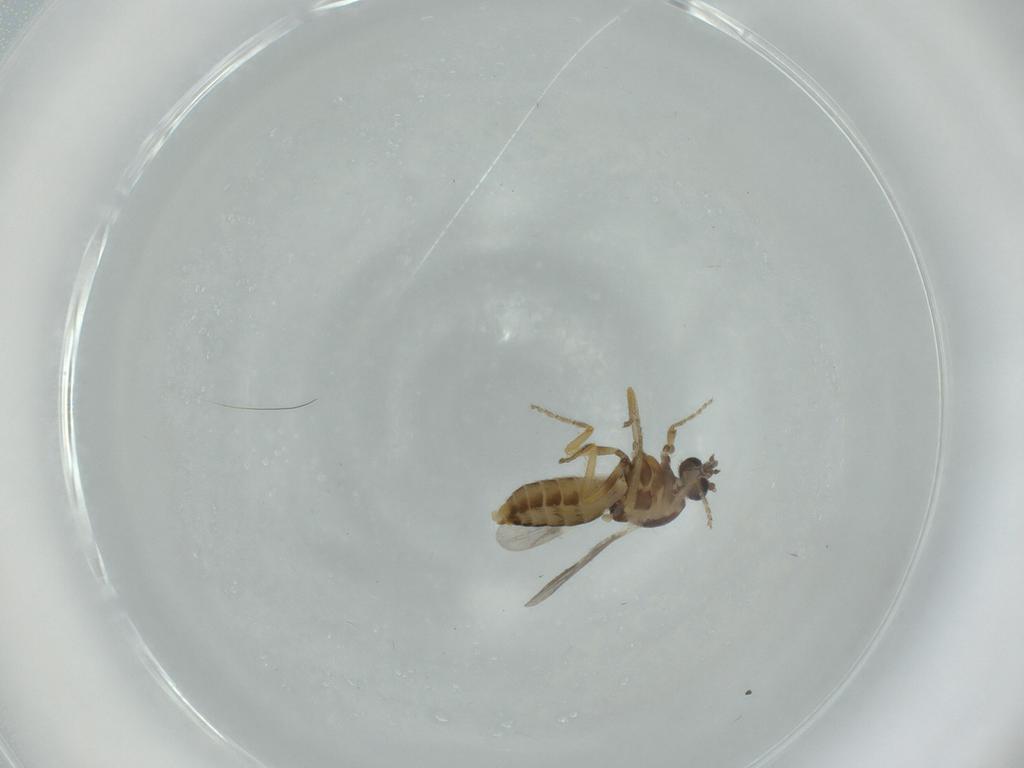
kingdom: Animalia
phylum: Arthropoda
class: Insecta
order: Diptera
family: Ceratopogonidae
